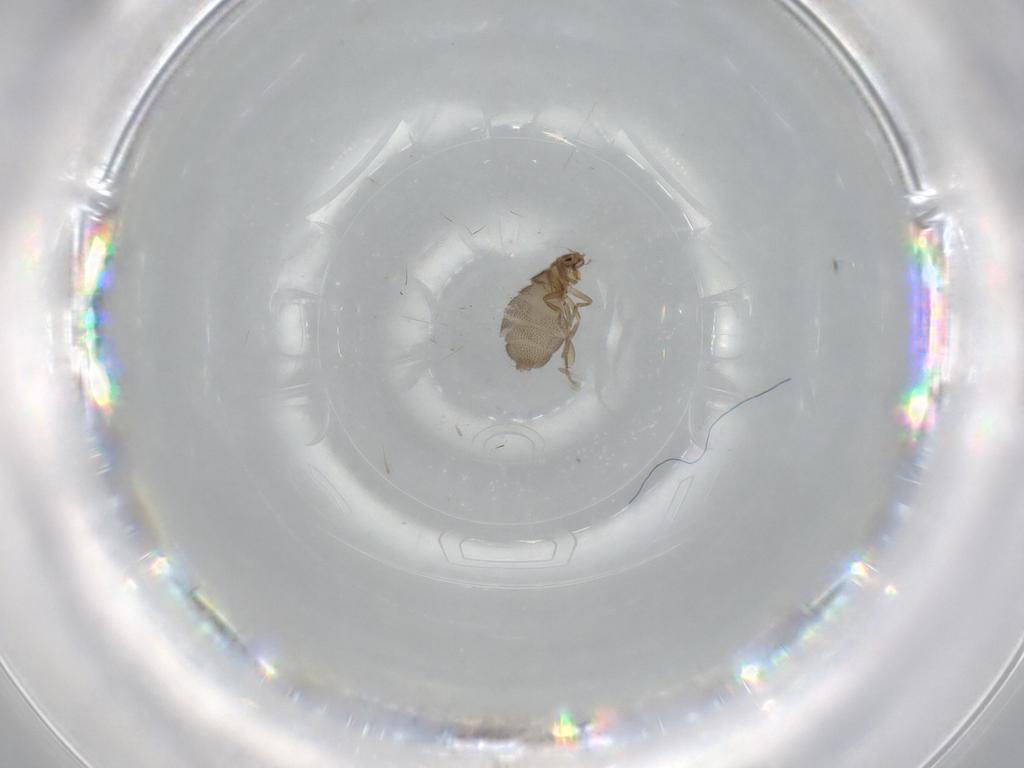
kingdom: Animalia
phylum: Arthropoda
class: Insecta
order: Diptera
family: Phoridae
